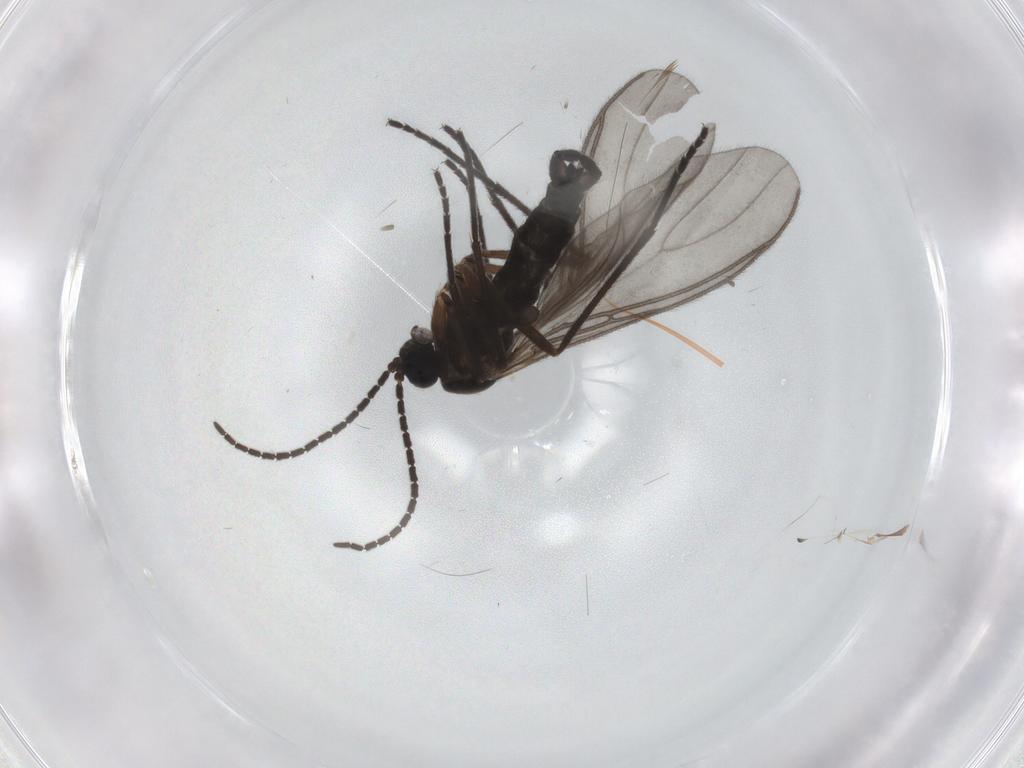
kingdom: Animalia
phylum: Arthropoda
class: Insecta
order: Diptera
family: Sciaridae
